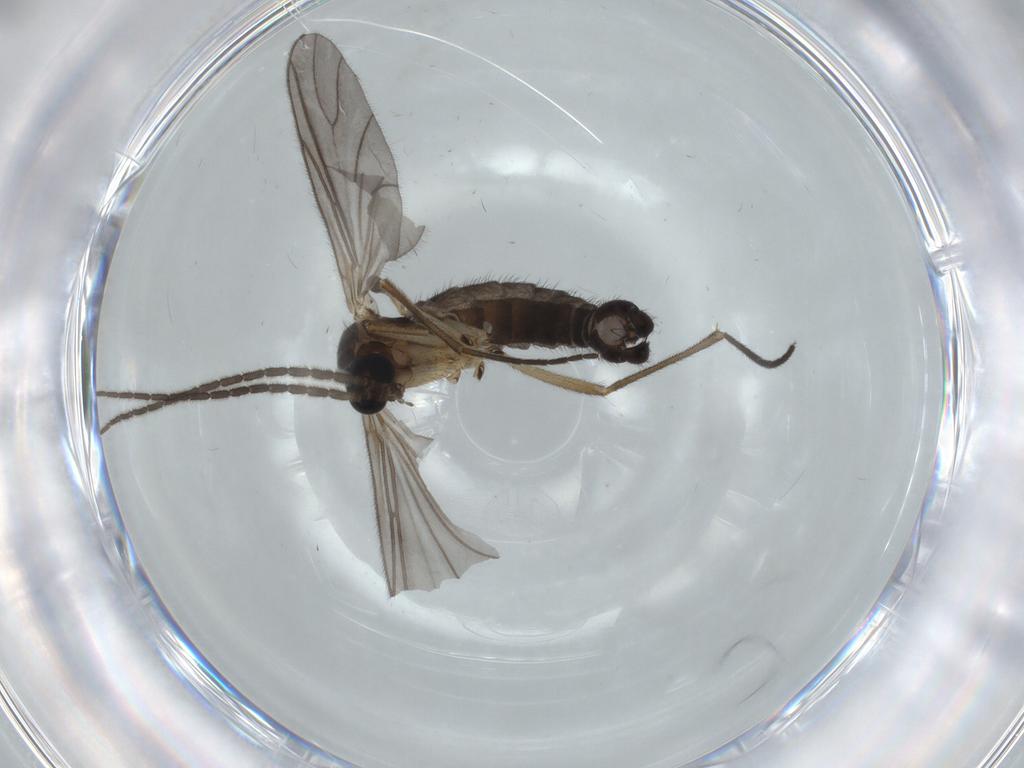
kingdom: Animalia
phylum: Arthropoda
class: Insecta
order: Diptera
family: Sciaridae
